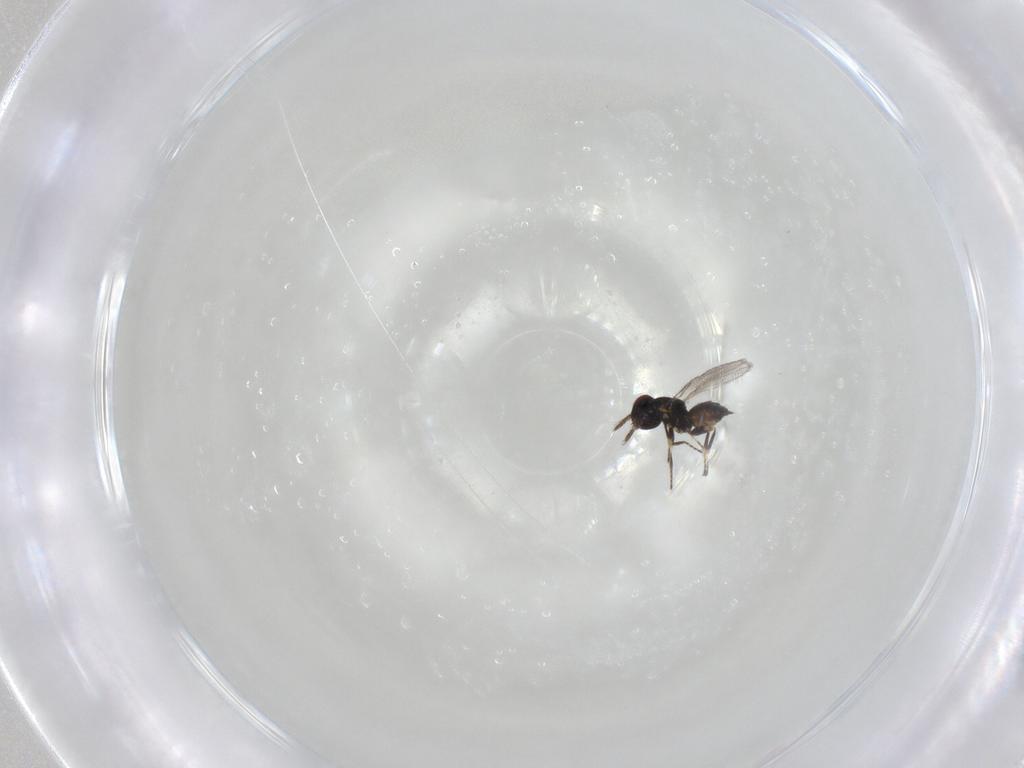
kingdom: Animalia
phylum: Arthropoda
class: Insecta
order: Hymenoptera
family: Eulophidae
